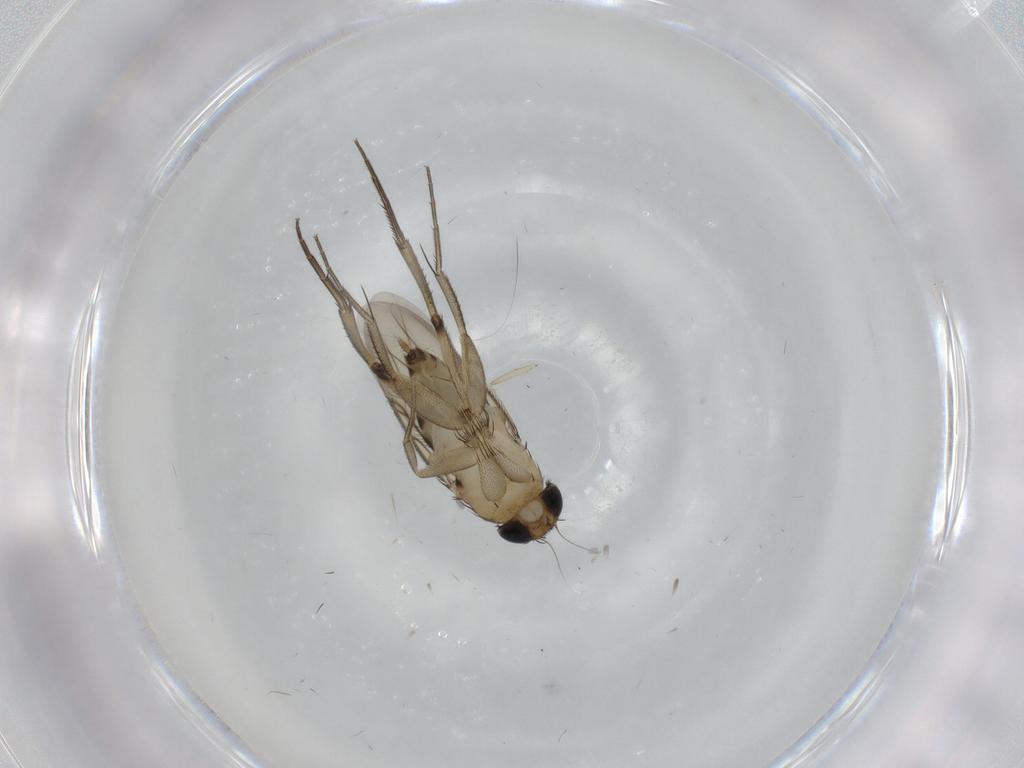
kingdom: Animalia
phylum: Arthropoda
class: Insecta
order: Diptera
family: Phoridae
